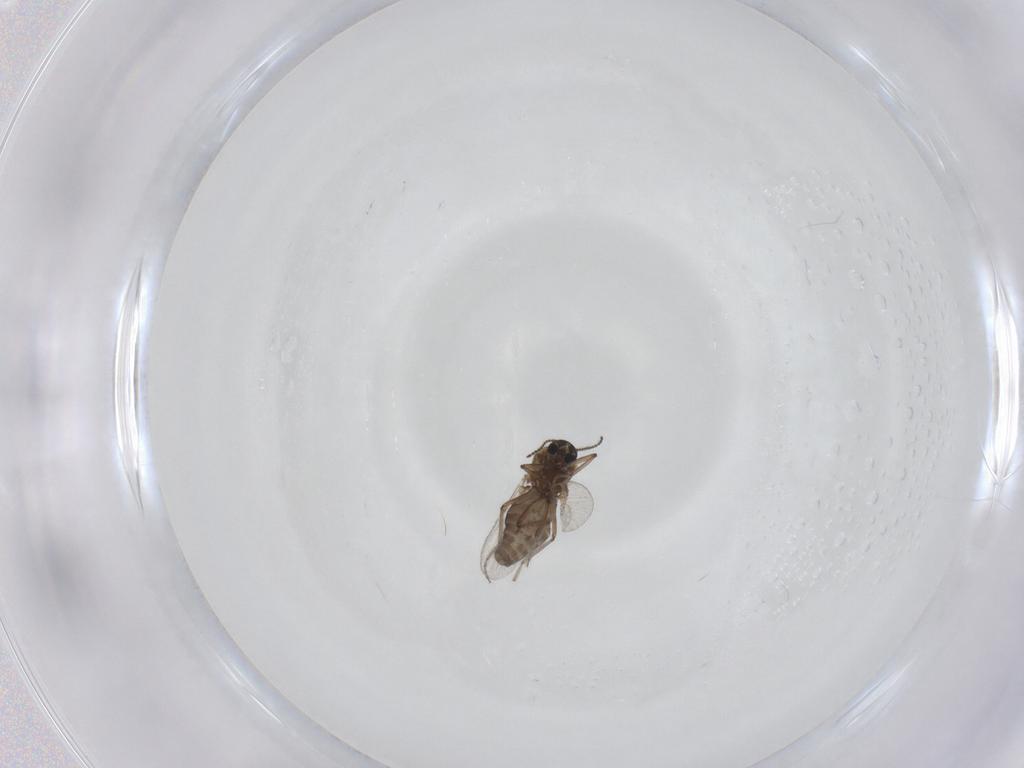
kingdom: Animalia
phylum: Arthropoda
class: Insecta
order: Diptera
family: Ceratopogonidae
